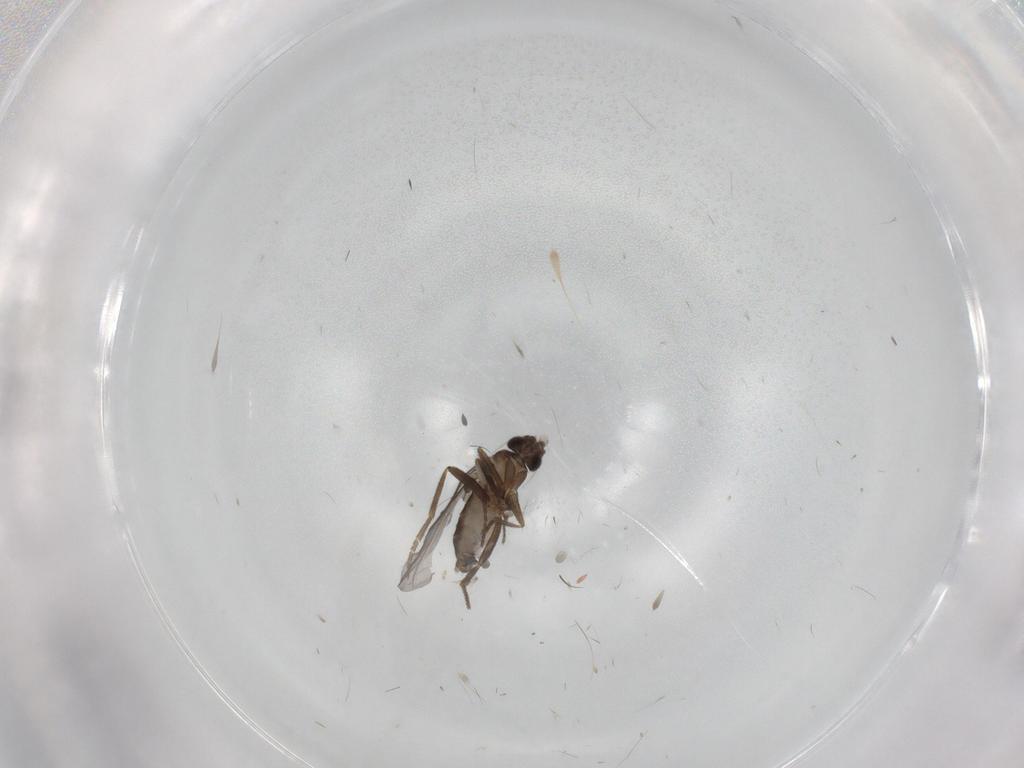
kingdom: Animalia
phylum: Arthropoda
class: Insecta
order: Diptera
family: Phoridae
